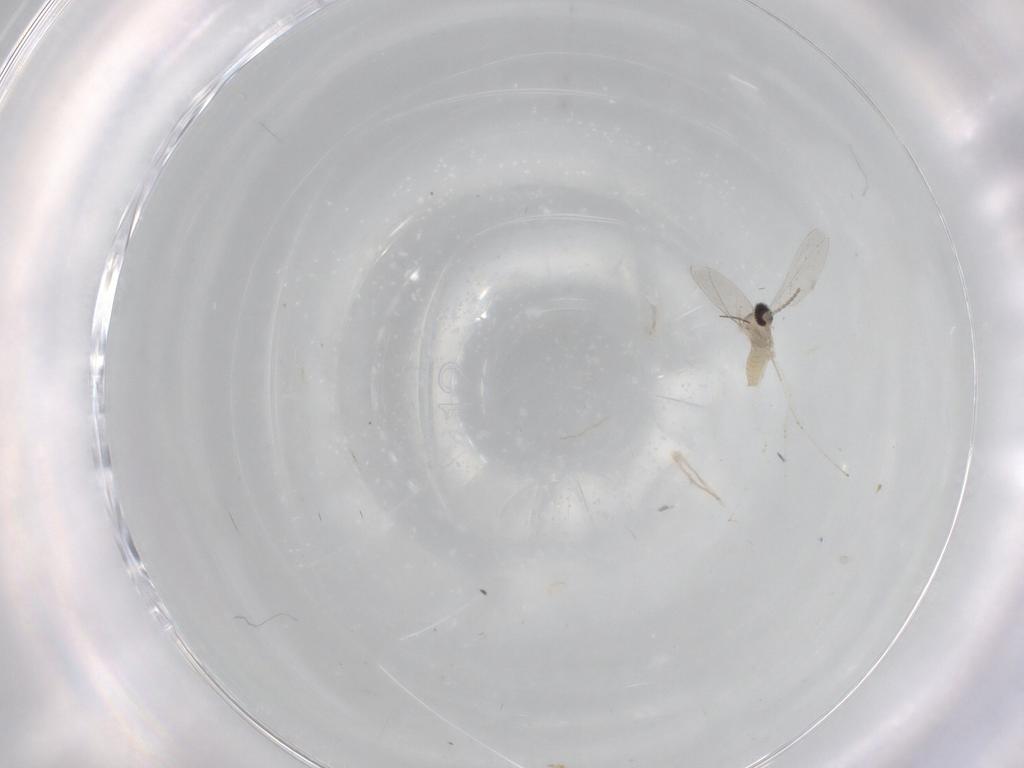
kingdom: Animalia
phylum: Arthropoda
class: Insecta
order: Diptera
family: Cecidomyiidae
